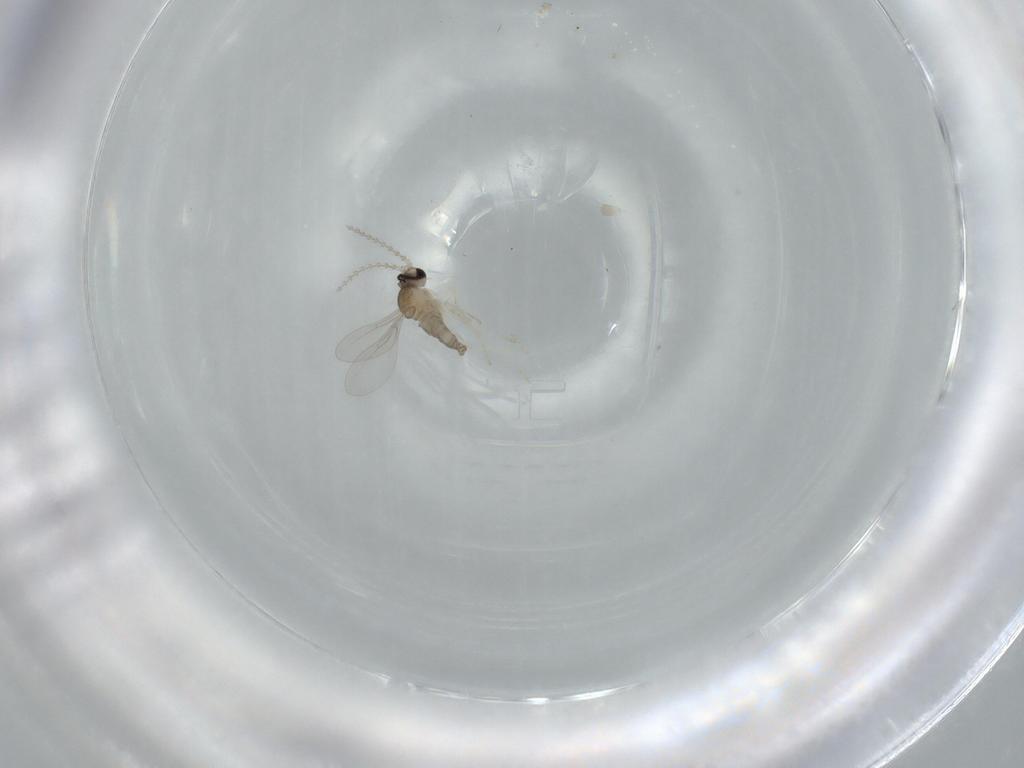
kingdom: Animalia
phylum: Arthropoda
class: Insecta
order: Diptera
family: Cecidomyiidae
